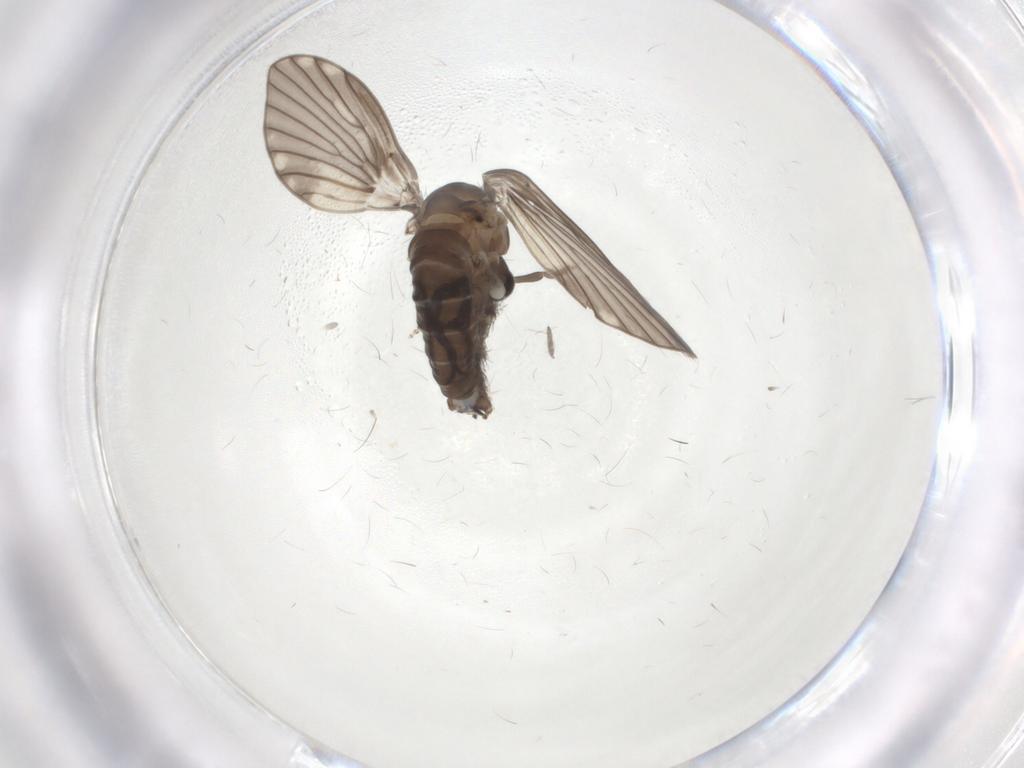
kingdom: Animalia
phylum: Arthropoda
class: Insecta
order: Diptera
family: Psychodidae
